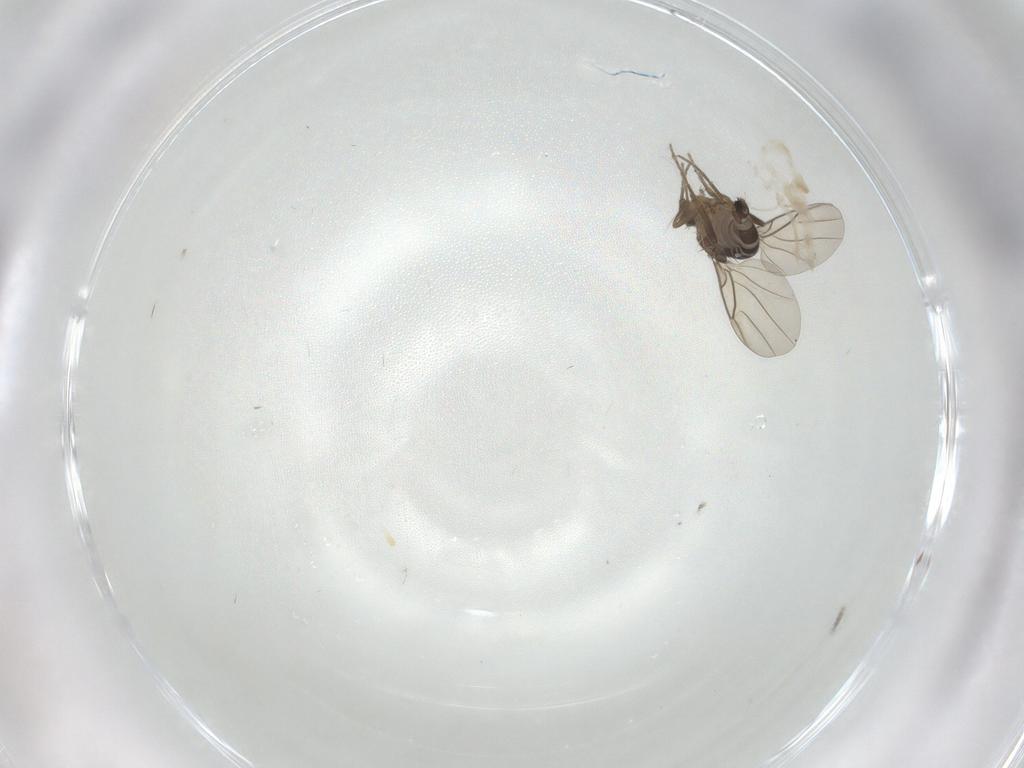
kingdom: Animalia
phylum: Arthropoda
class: Insecta
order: Diptera
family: Phoridae
